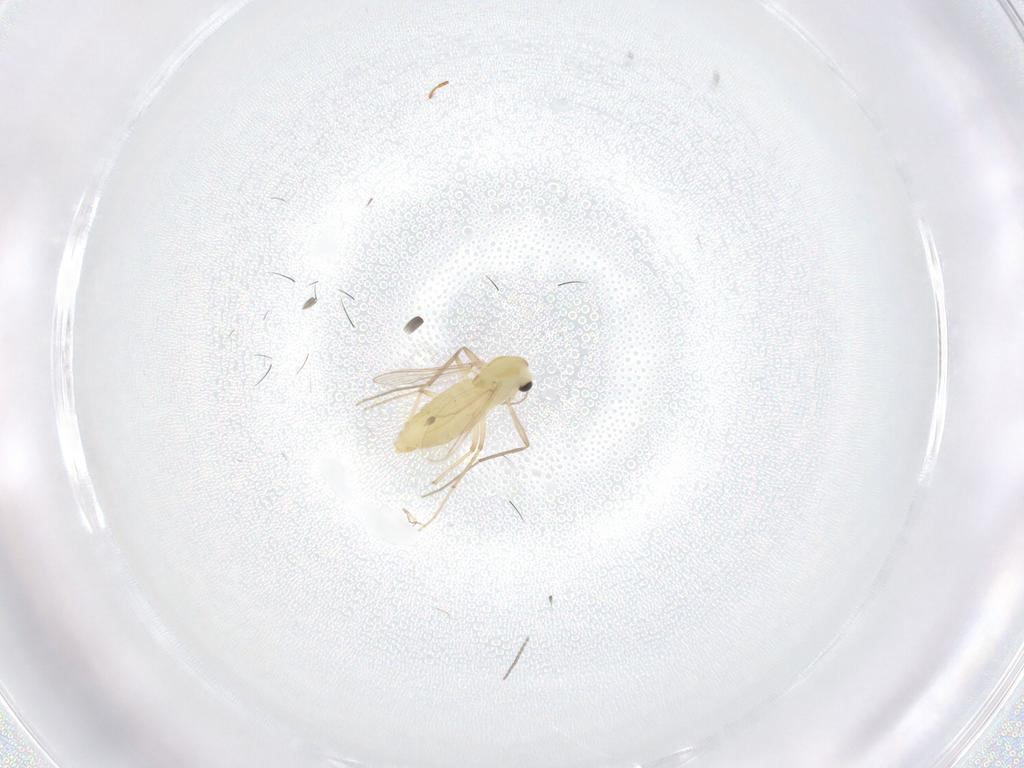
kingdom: Animalia
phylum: Arthropoda
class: Insecta
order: Diptera
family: Chironomidae
